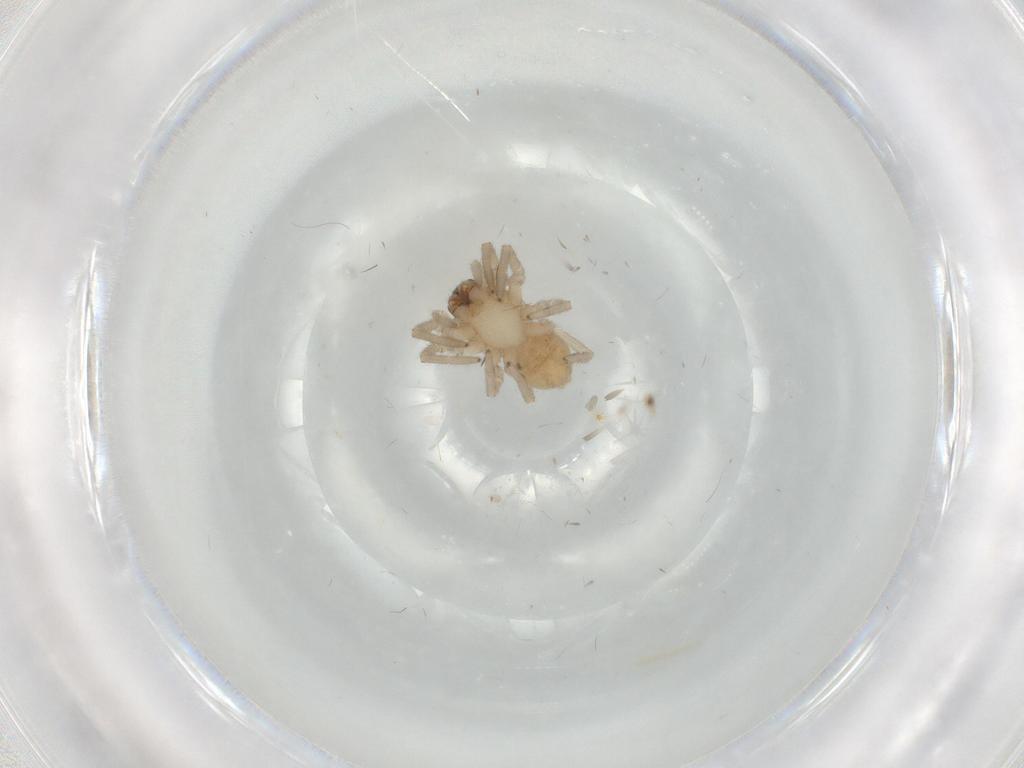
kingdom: Animalia
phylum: Arthropoda
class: Arachnida
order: Araneae
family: Trachelidae
